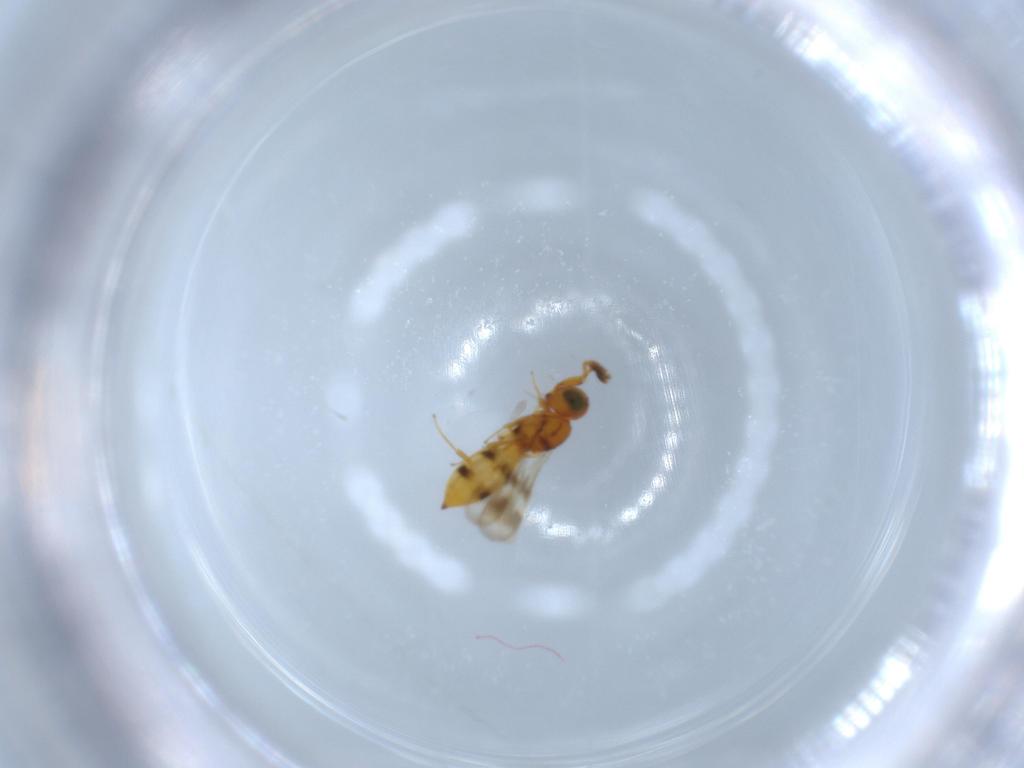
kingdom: Animalia
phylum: Arthropoda
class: Insecta
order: Hymenoptera
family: Scelionidae
